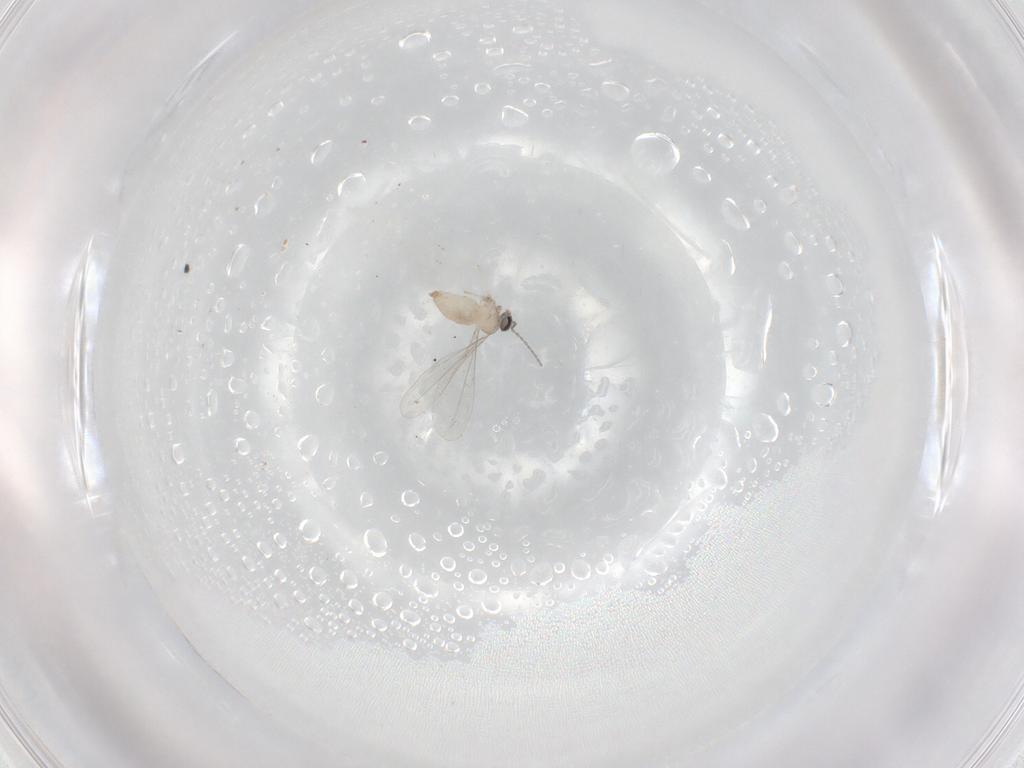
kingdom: Animalia
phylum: Arthropoda
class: Insecta
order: Diptera
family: Cecidomyiidae
